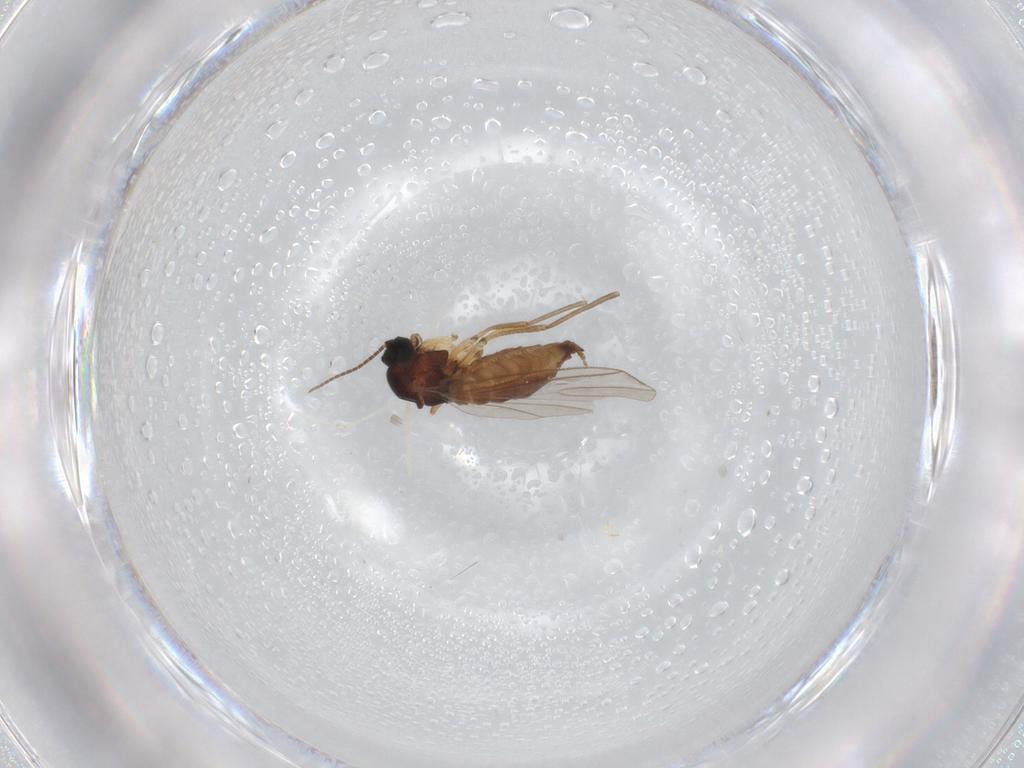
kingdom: Animalia
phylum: Arthropoda
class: Insecta
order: Diptera
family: Sciaridae
